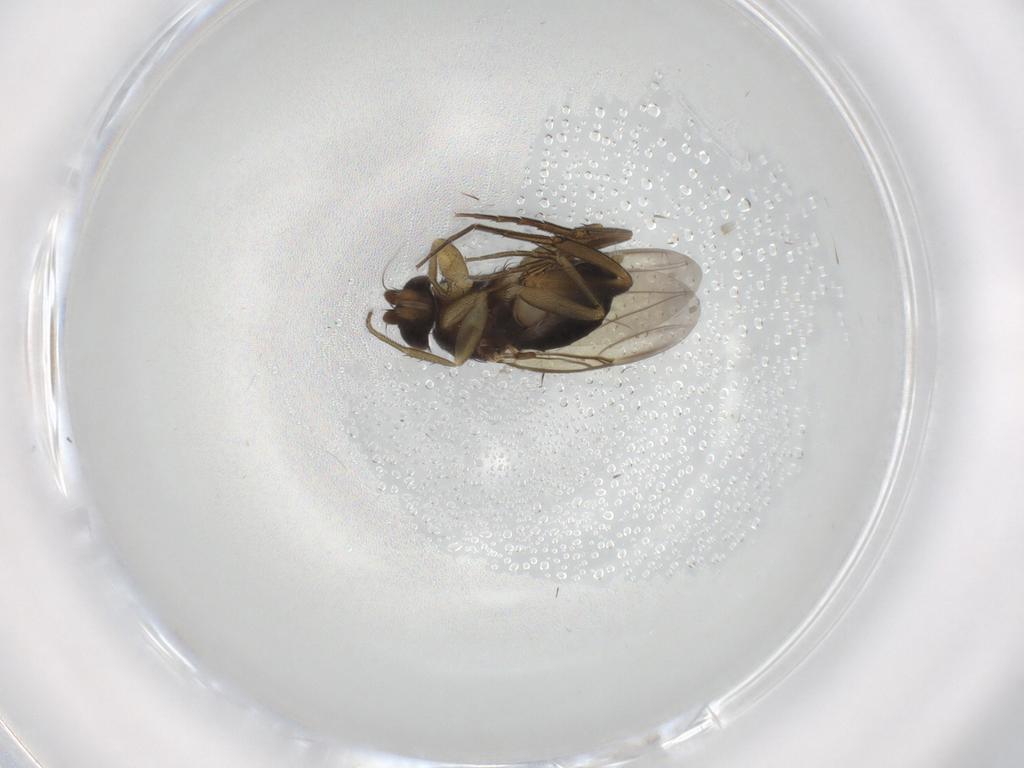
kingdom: Animalia
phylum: Arthropoda
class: Insecta
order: Diptera
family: Phoridae
